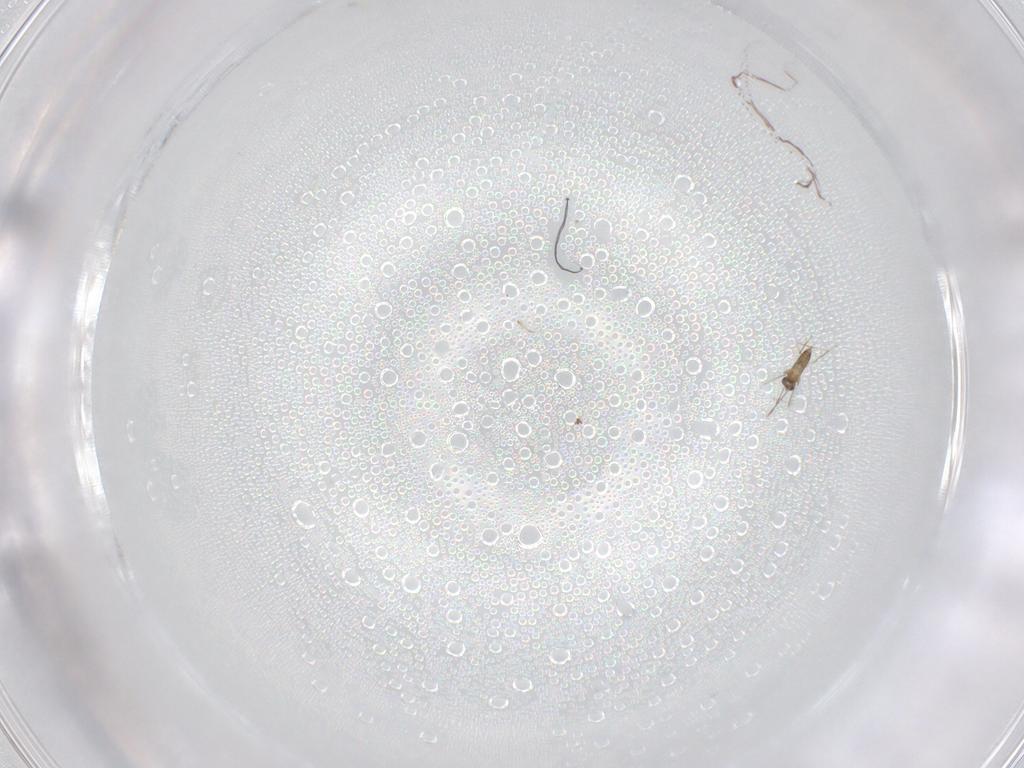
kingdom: Animalia
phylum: Arthropoda
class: Insecta
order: Hymenoptera
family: Mymaridae
